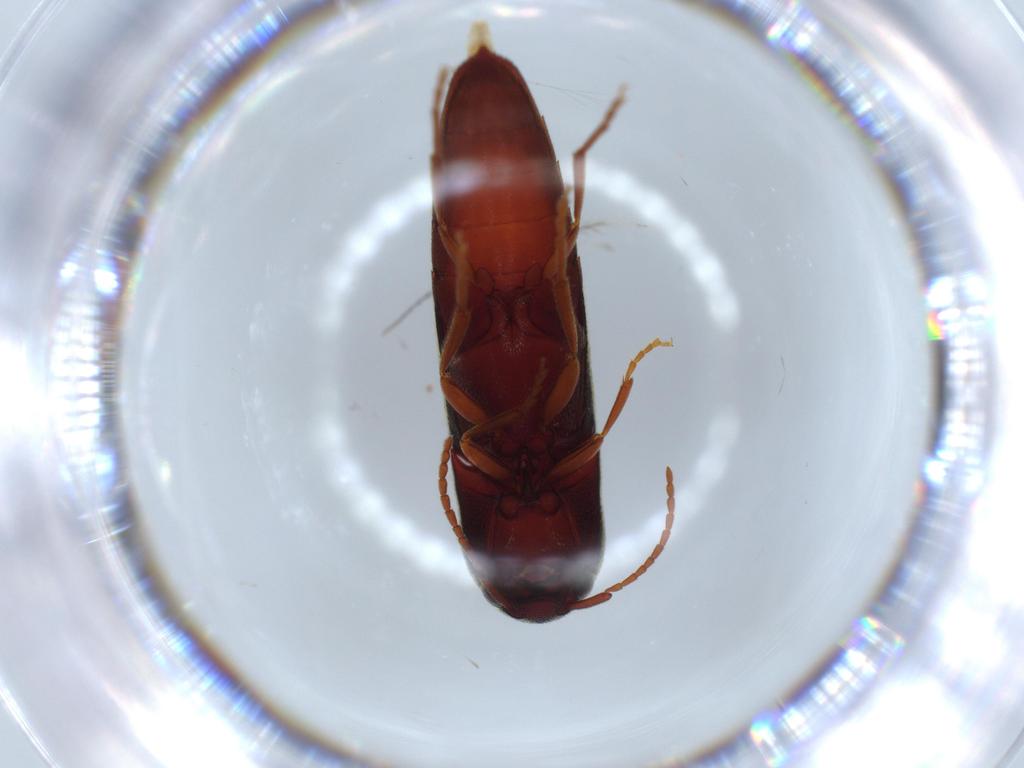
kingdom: Animalia
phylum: Arthropoda
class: Insecta
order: Coleoptera
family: Eucnemidae
